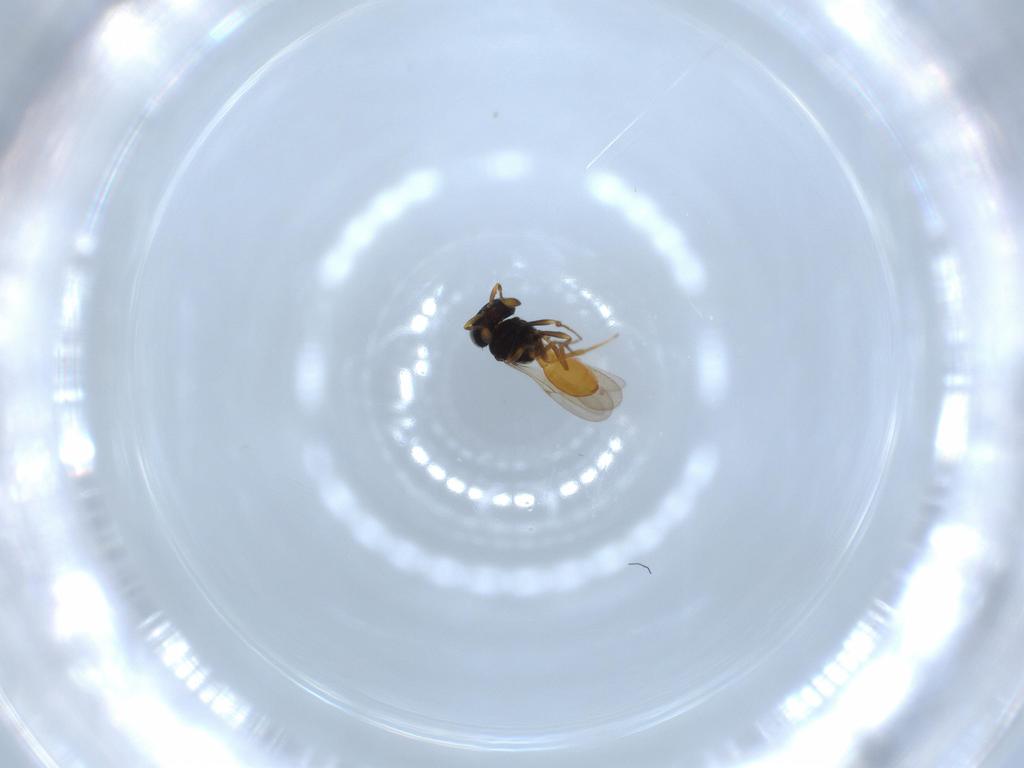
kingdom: Animalia
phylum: Arthropoda
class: Insecta
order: Hymenoptera
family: Scelionidae
